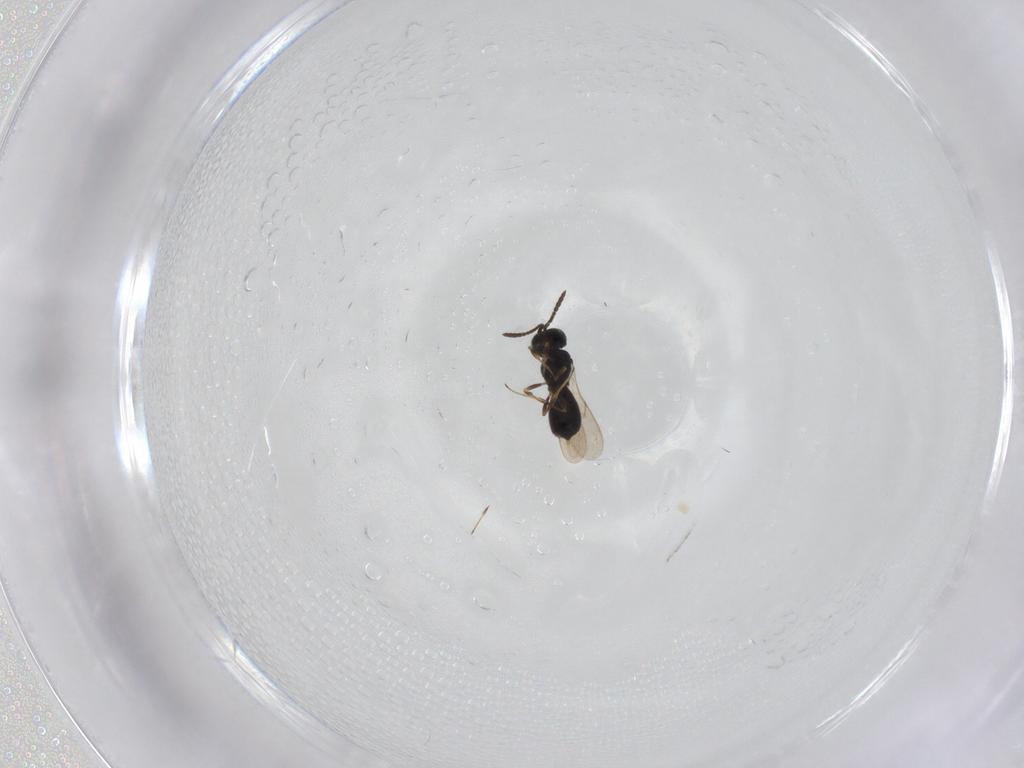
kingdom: Animalia
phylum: Arthropoda
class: Insecta
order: Hymenoptera
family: Scelionidae
